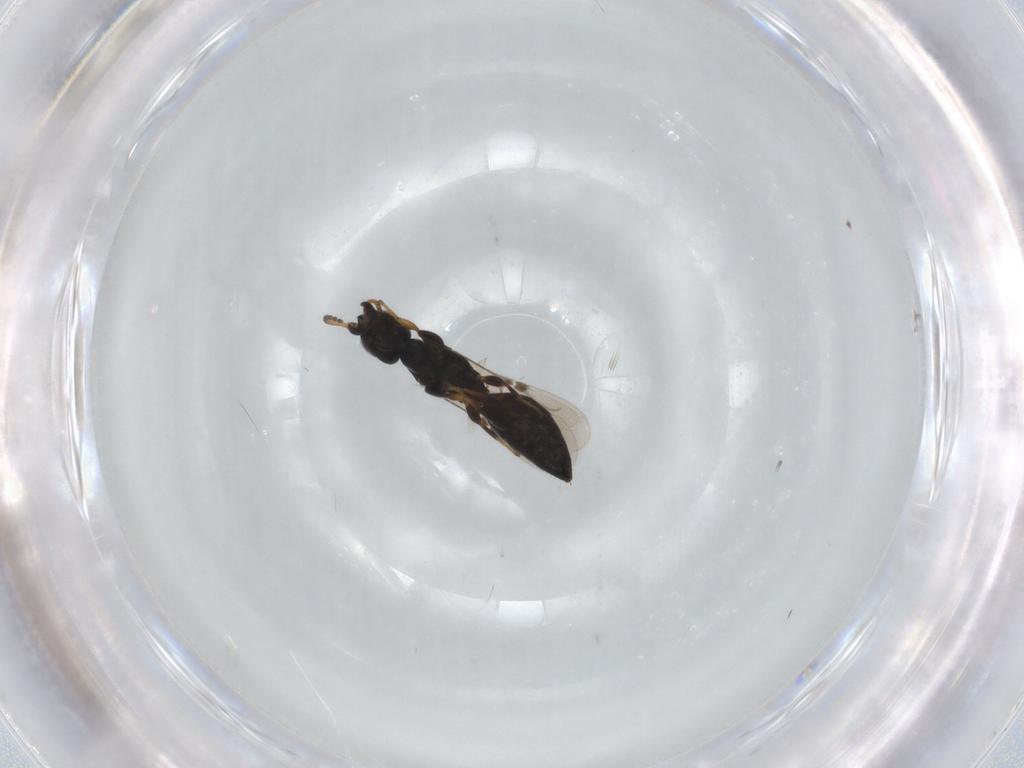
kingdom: Animalia
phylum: Arthropoda
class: Insecta
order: Hymenoptera
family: Bethylidae
